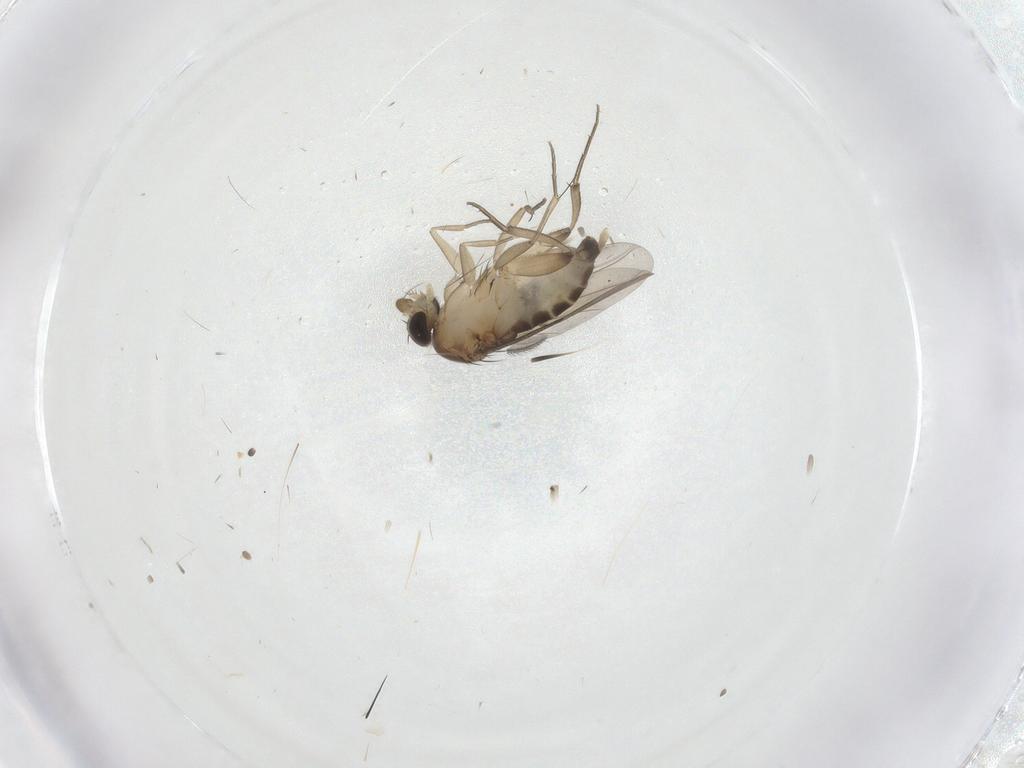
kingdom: Animalia
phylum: Arthropoda
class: Insecta
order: Diptera
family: Phoridae
